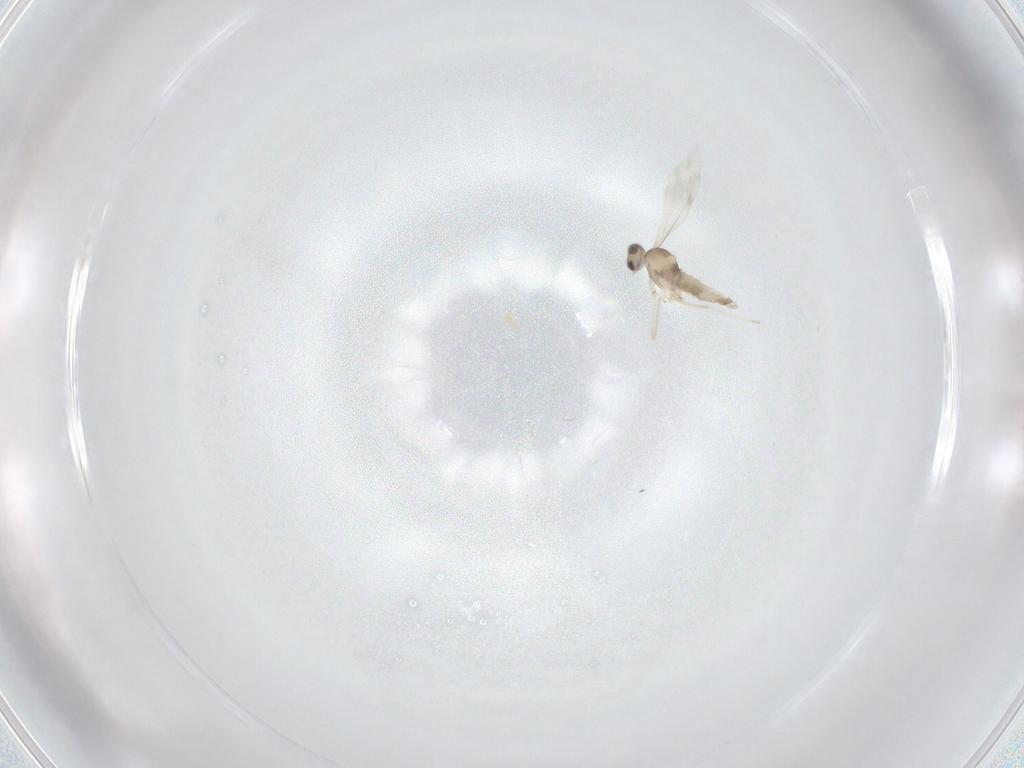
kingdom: Animalia
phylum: Arthropoda
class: Insecta
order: Diptera
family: Cecidomyiidae
